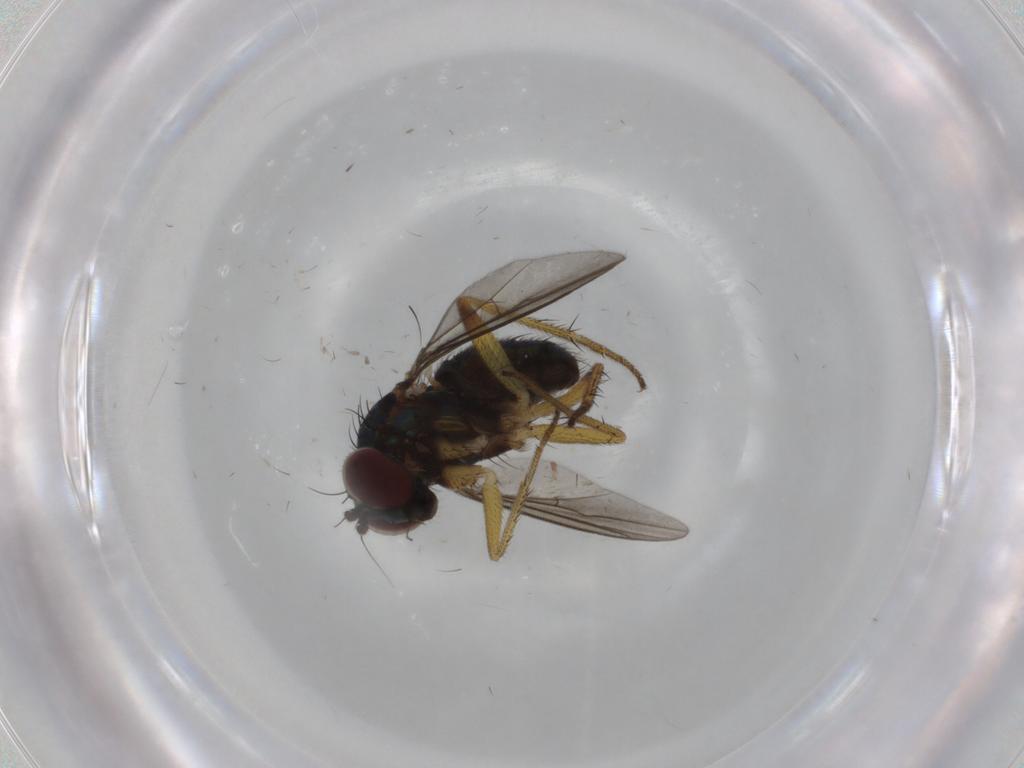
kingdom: Animalia
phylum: Arthropoda
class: Insecta
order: Diptera
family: Dolichopodidae
